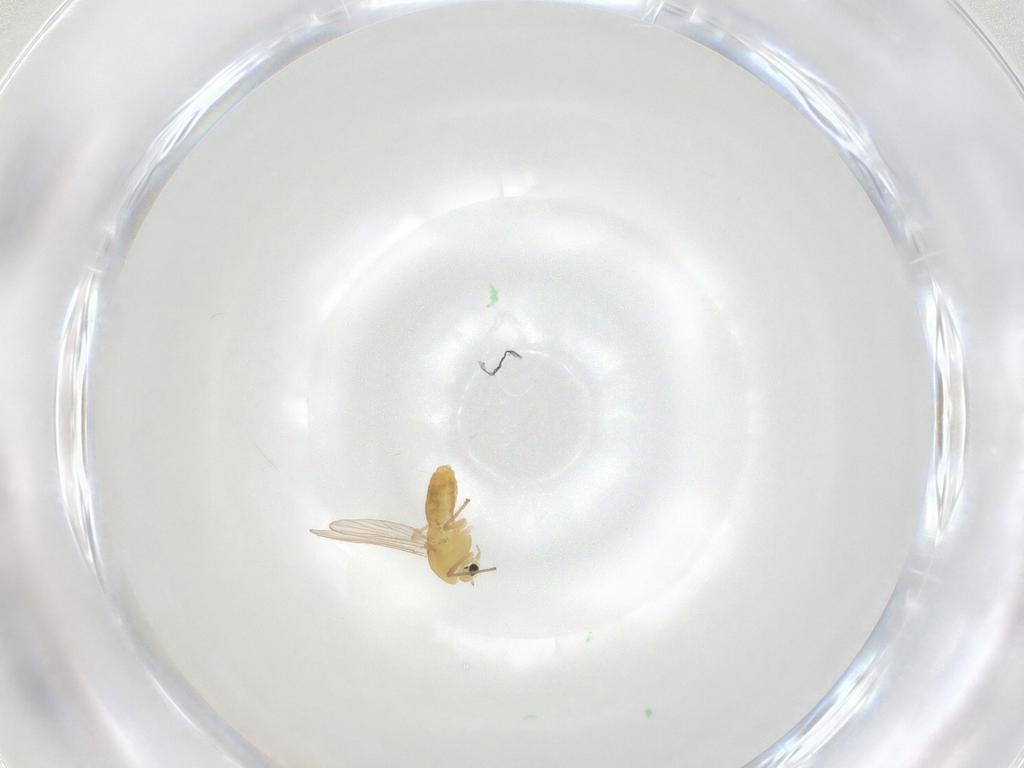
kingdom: Animalia
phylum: Arthropoda
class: Insecta
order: Diptera
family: Chironomidae
